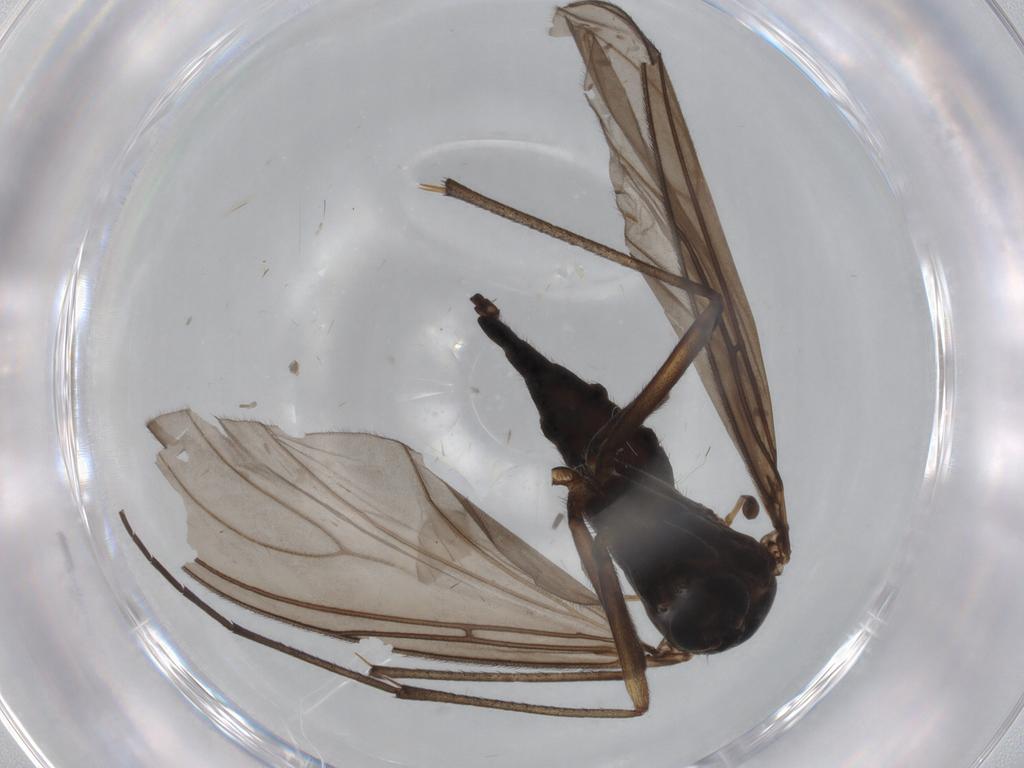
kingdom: Animalia
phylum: Arthropoda
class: Insecta
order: Diptera
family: Sciaridae
